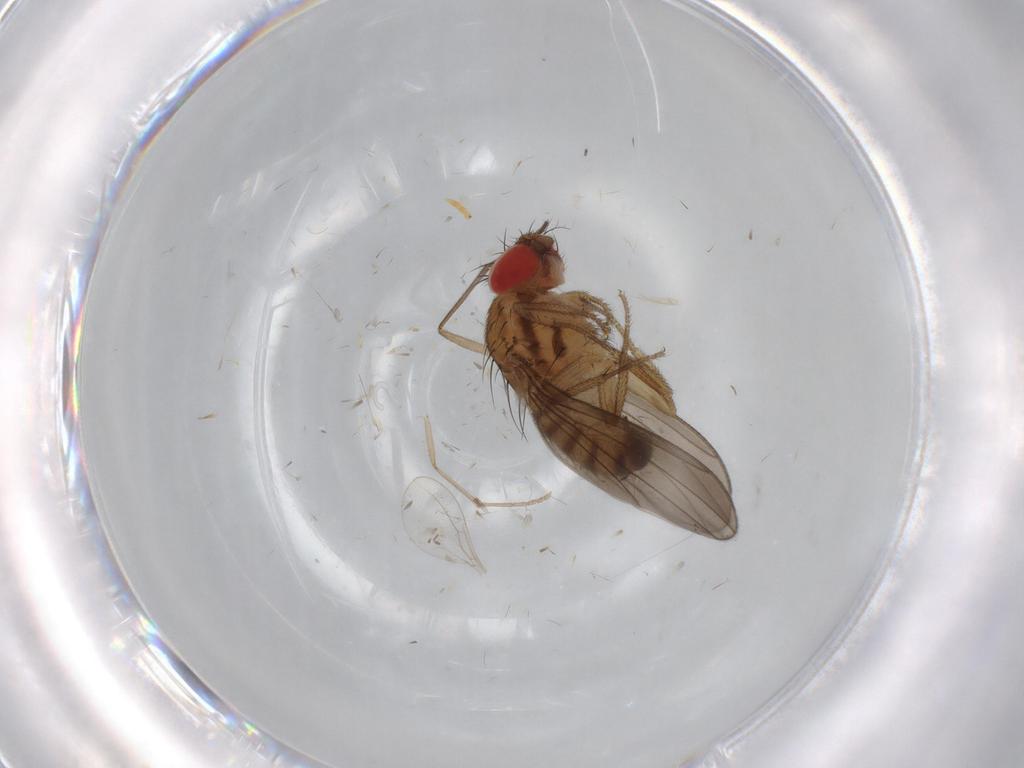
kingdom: Animalia
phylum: Arthropoda
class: Insecta
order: Diptera
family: Drosophilidae
